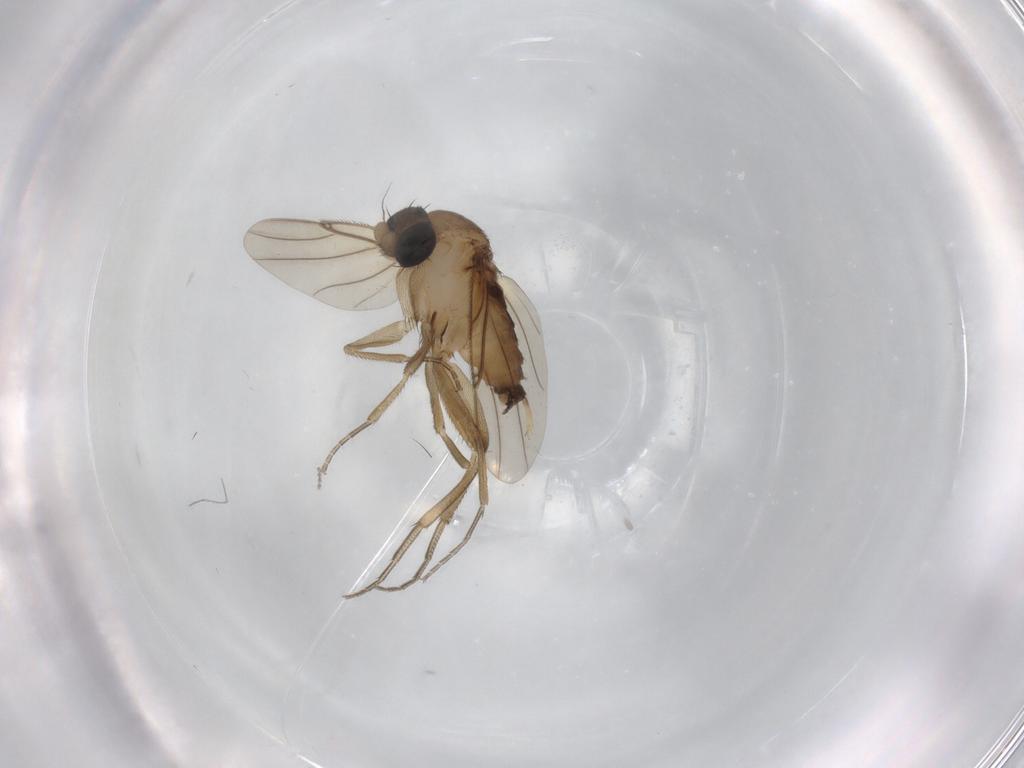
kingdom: Animalia
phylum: Arthropoda
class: Insecta
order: Diptera
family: Phoridae
